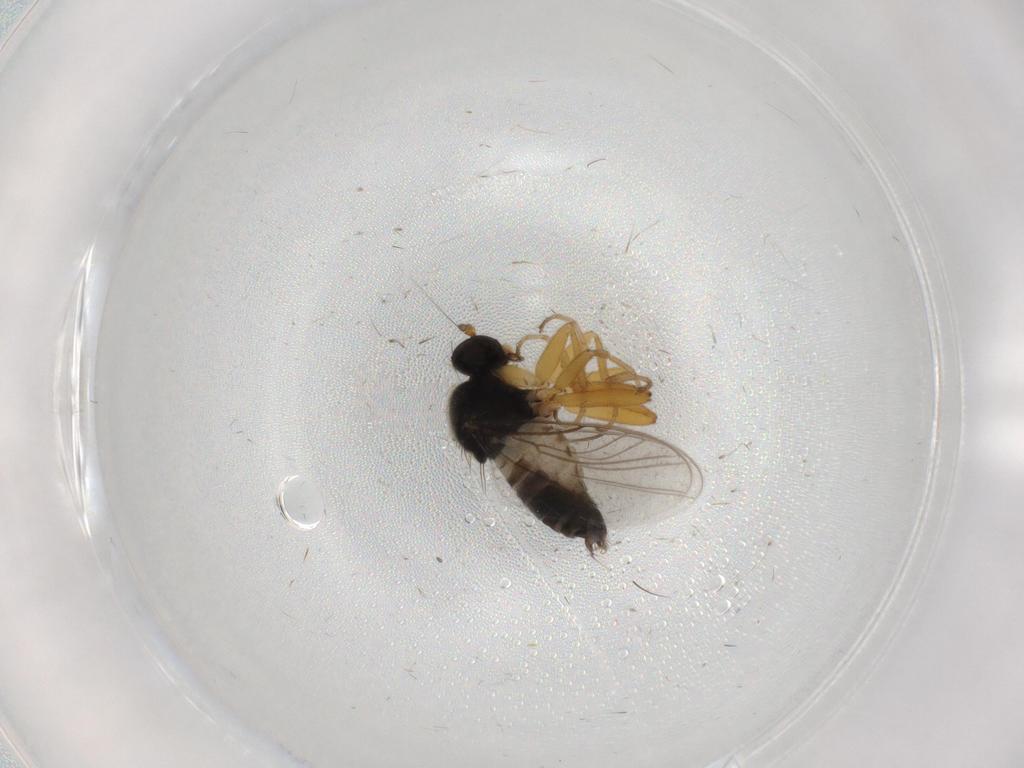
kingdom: Animalia
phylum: Arthropoda
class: Insecta
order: Diptera
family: Hybotidae
